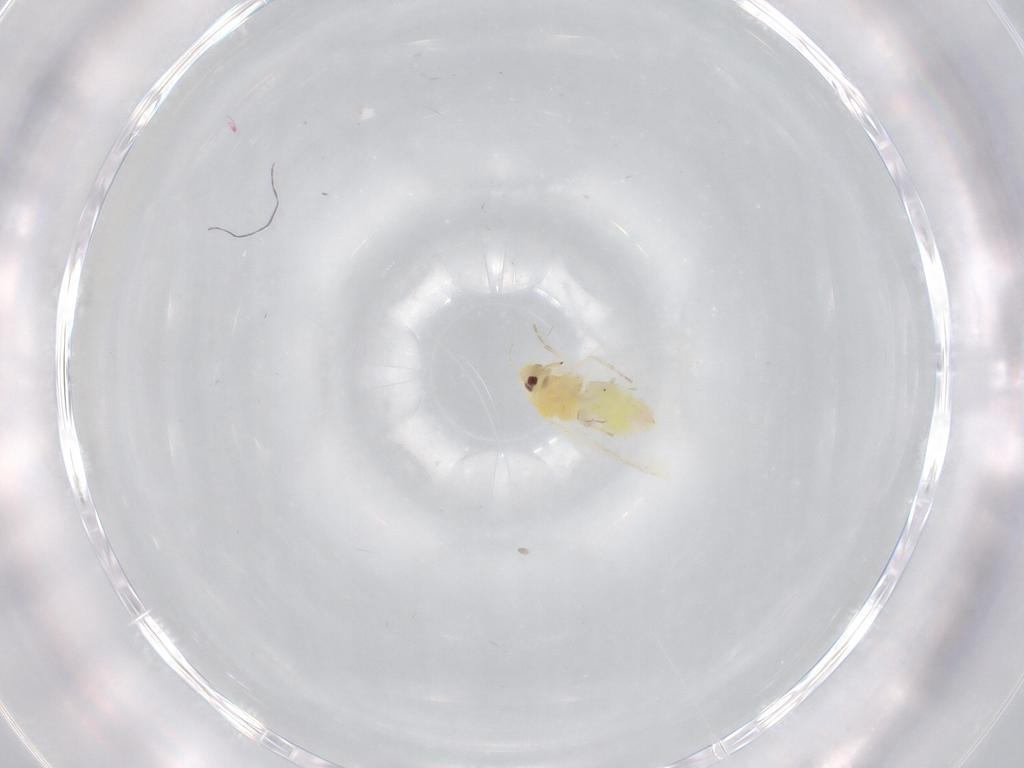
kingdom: Animalia
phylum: Arthropoda
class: Insecta
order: Hemiptera
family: Aleyrodidae
